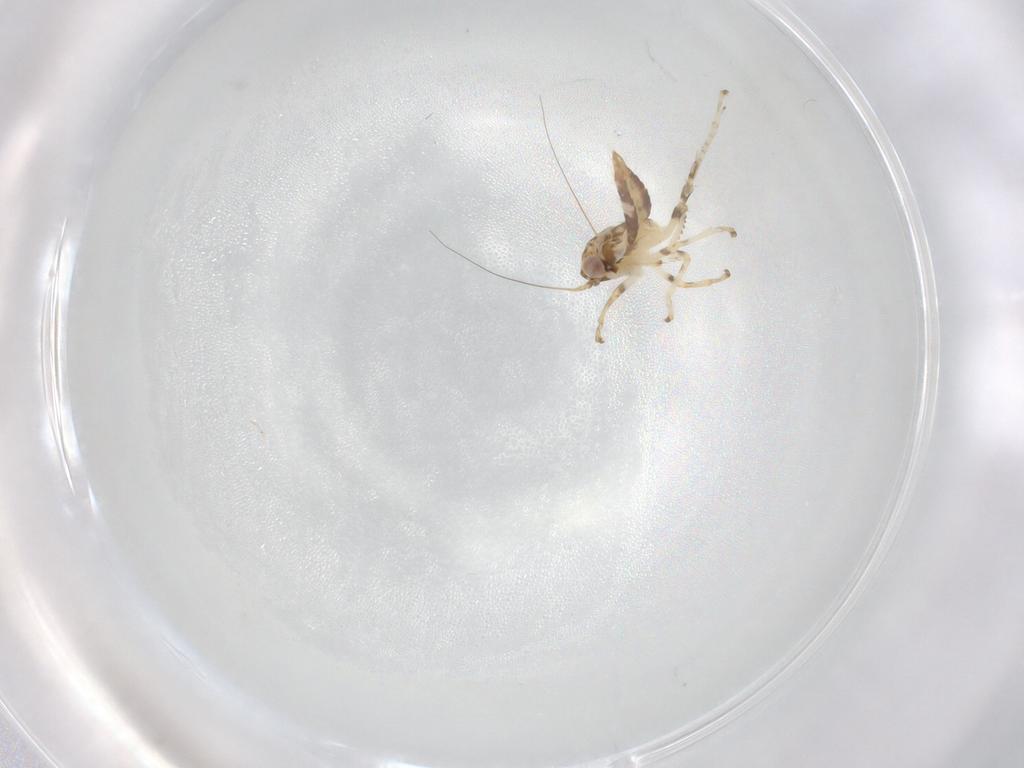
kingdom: Animalia
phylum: Arthropoda
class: Insecta
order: Hemiptera
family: Cicadellidae
